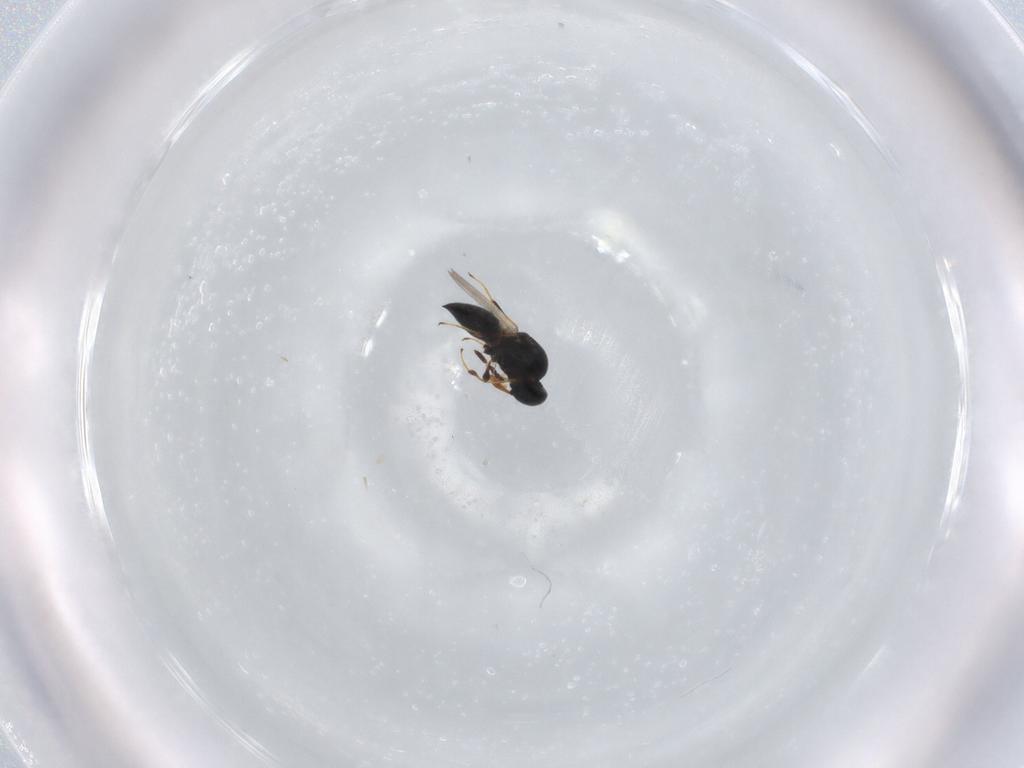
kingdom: Animalia
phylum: Arthropoda
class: Insecta
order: Hymenoptera
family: Platygastridae
